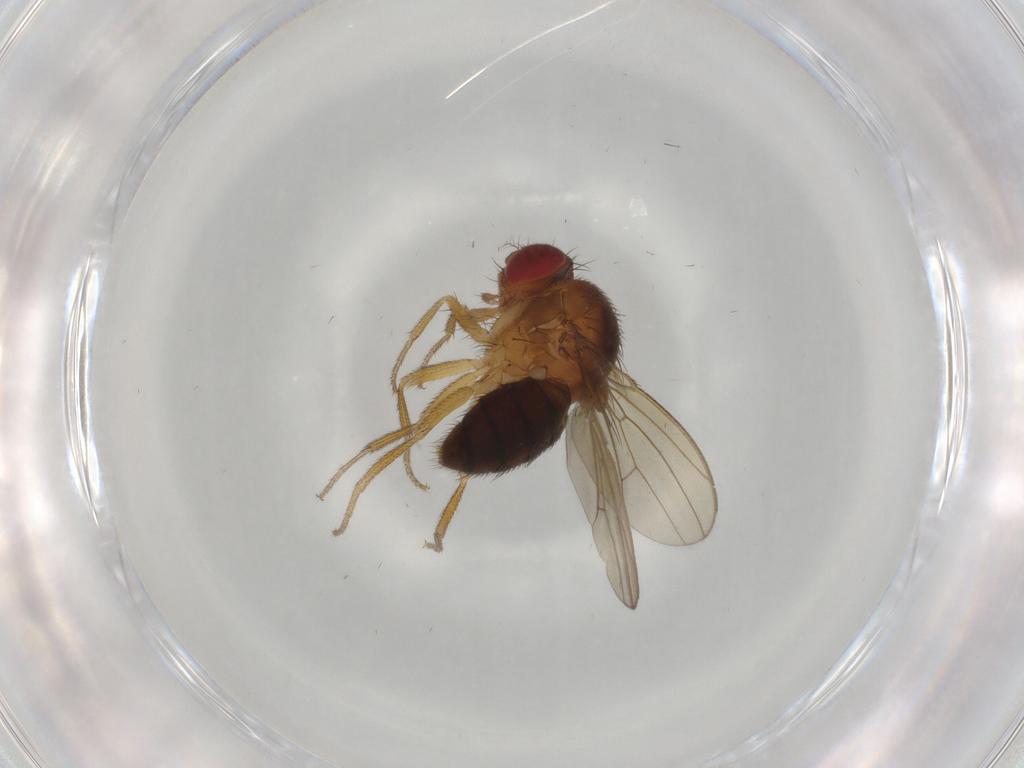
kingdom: Animalia
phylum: Arthropoda
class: Insecta
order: Diptera
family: Drosophilidae
